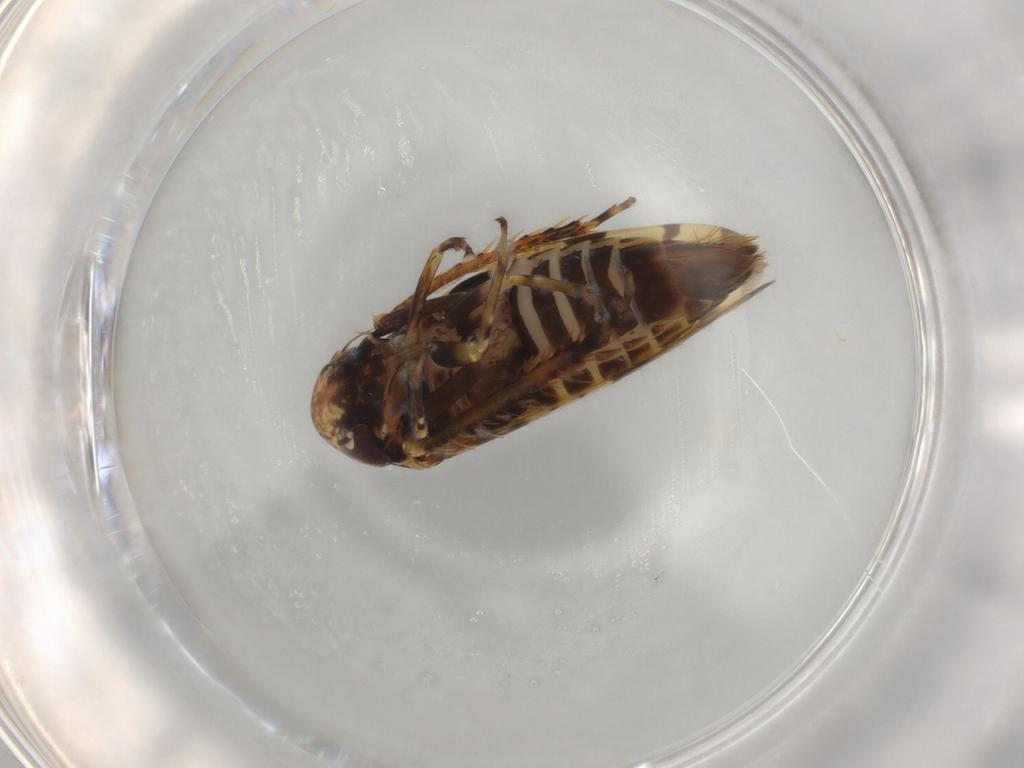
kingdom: Animalia
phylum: Arthropoda
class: Insecta
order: Hemiptera
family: Cicadellidae
